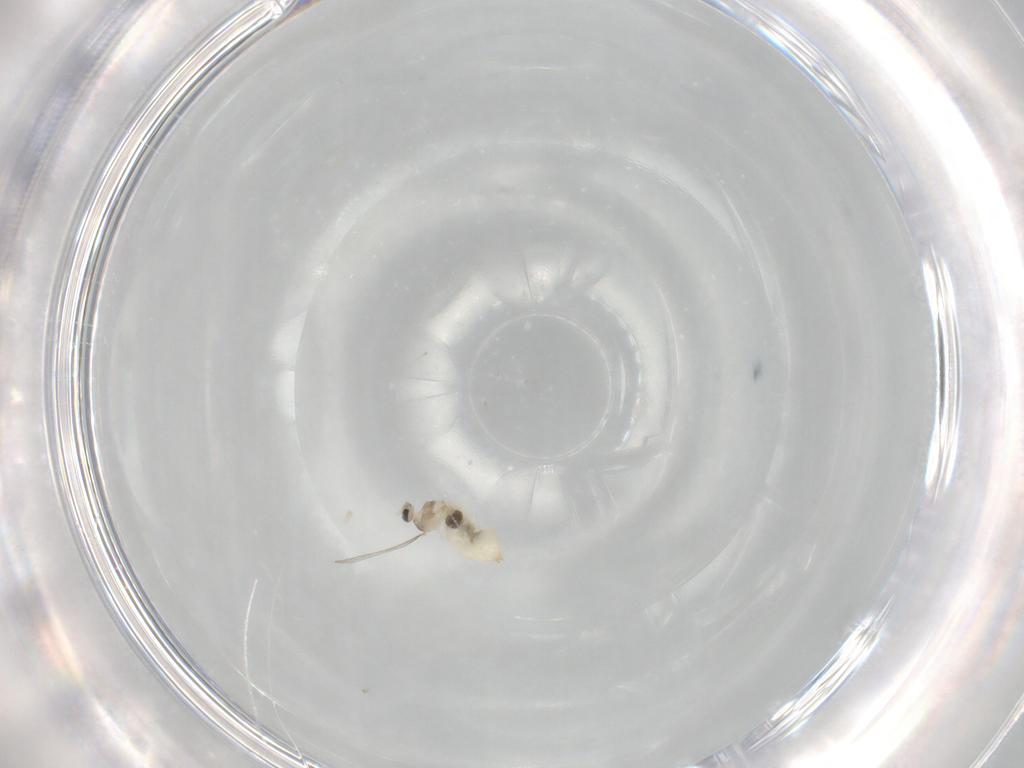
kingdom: Animalia
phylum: Arthropoda
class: Insecta
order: Diptera
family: Cecidomyiidae
